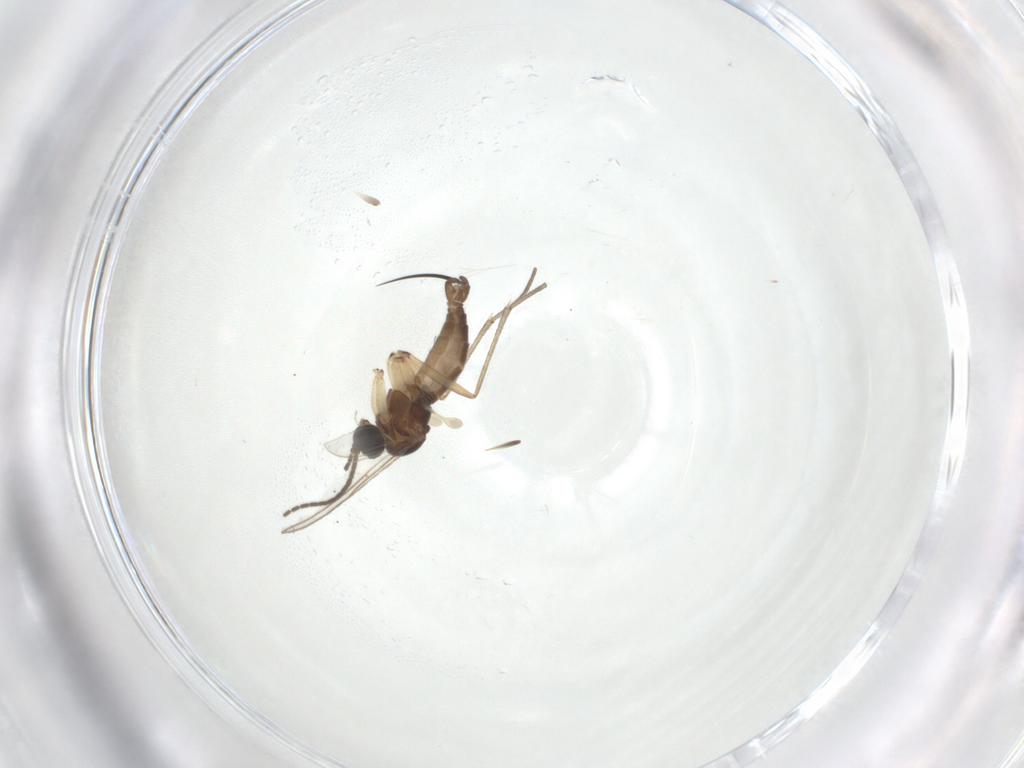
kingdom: Animalia
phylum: Arthropoda
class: Insecta
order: Diptera
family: Sciaridae
